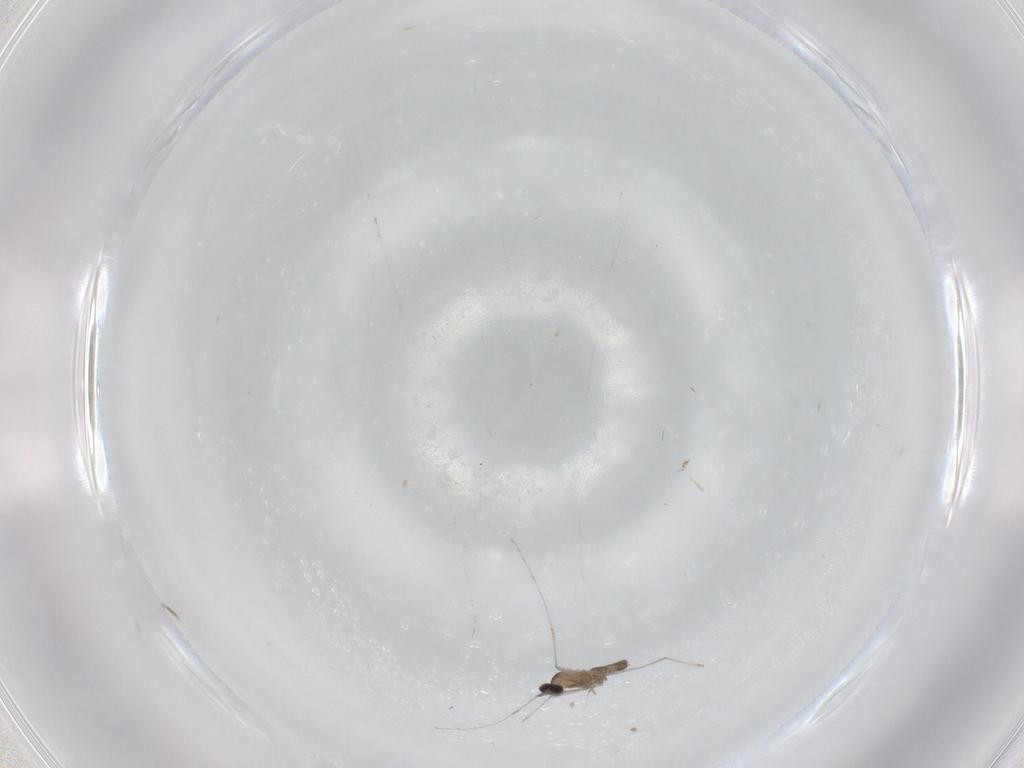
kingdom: Animalia
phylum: Arthropoda
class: Insecta
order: Diptera
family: Cecidomyiidae
